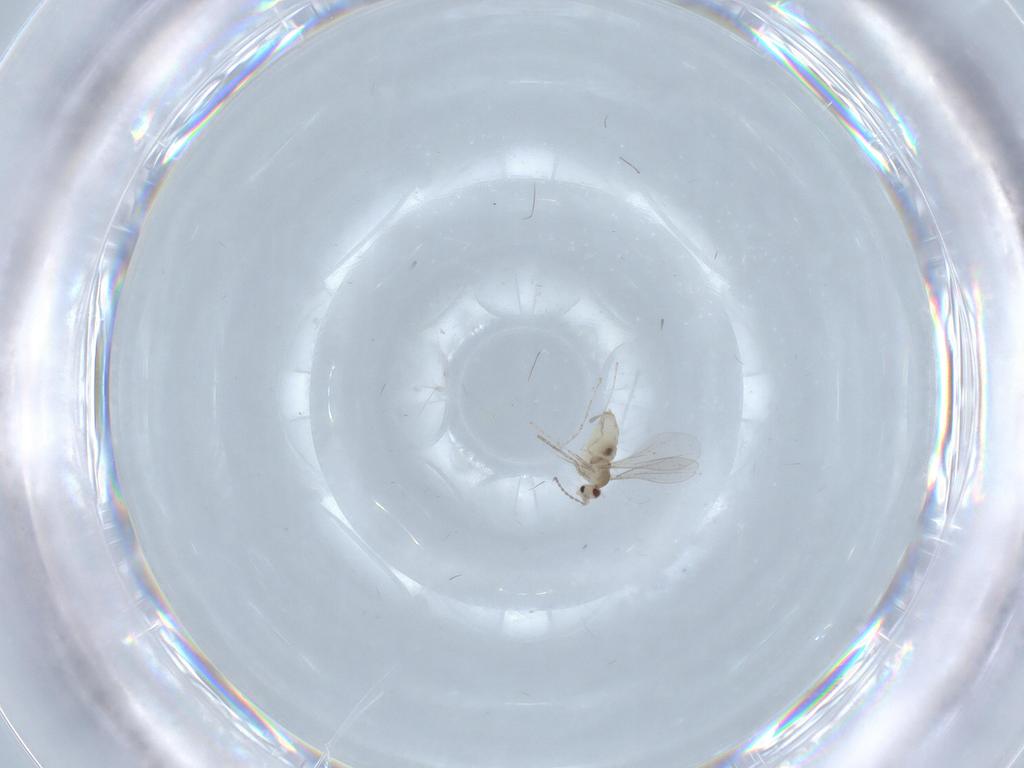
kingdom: Animalia
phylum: Arthropoda
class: Insecta
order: Diptera
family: Cecidomyiidae
